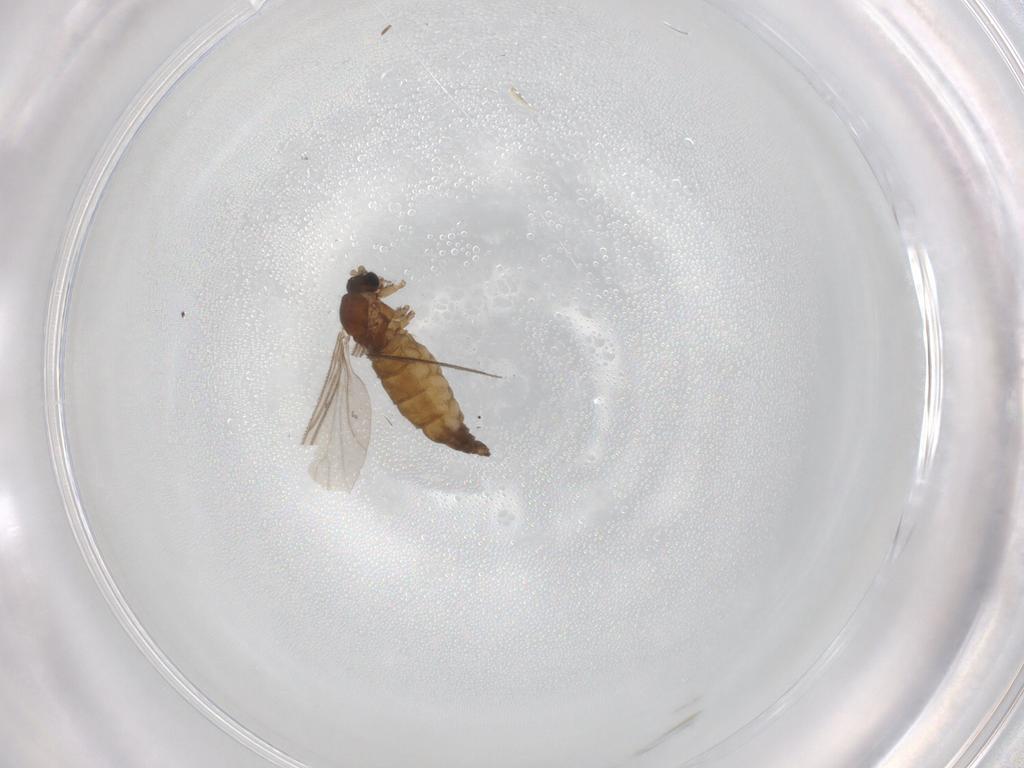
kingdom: Animalia
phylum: Arthropoda
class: Insecta
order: Diptera
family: Sciaridae
